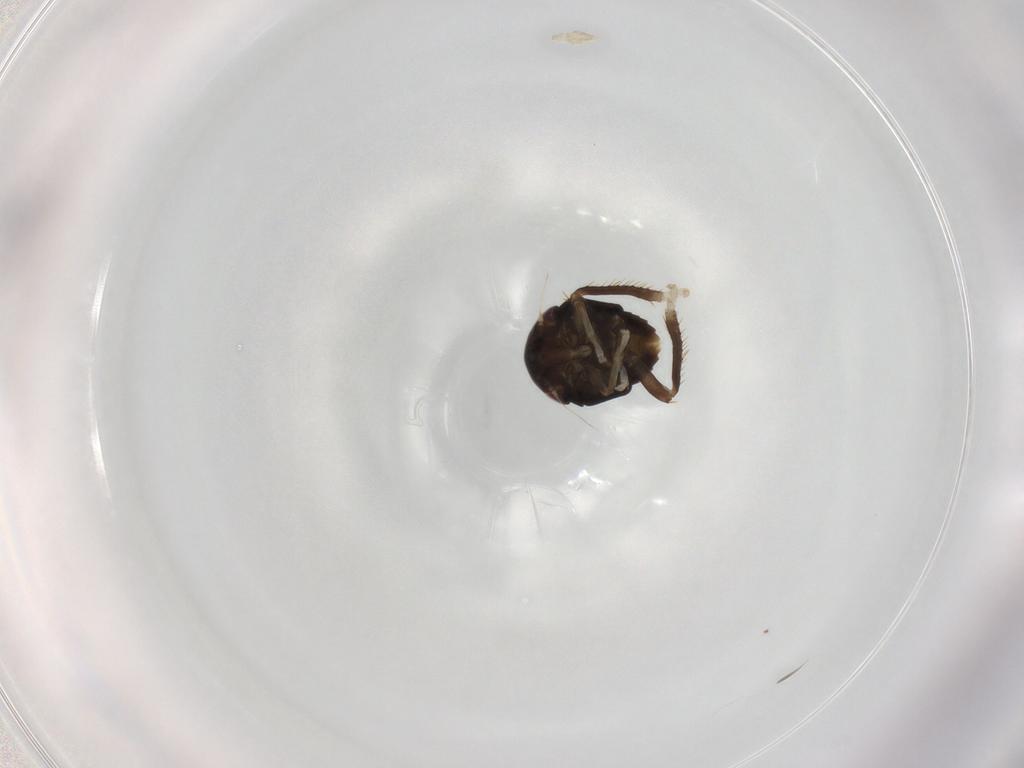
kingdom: Animalia
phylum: Arthropoda
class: Insecta
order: Hemiptera
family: Cicadellidae
